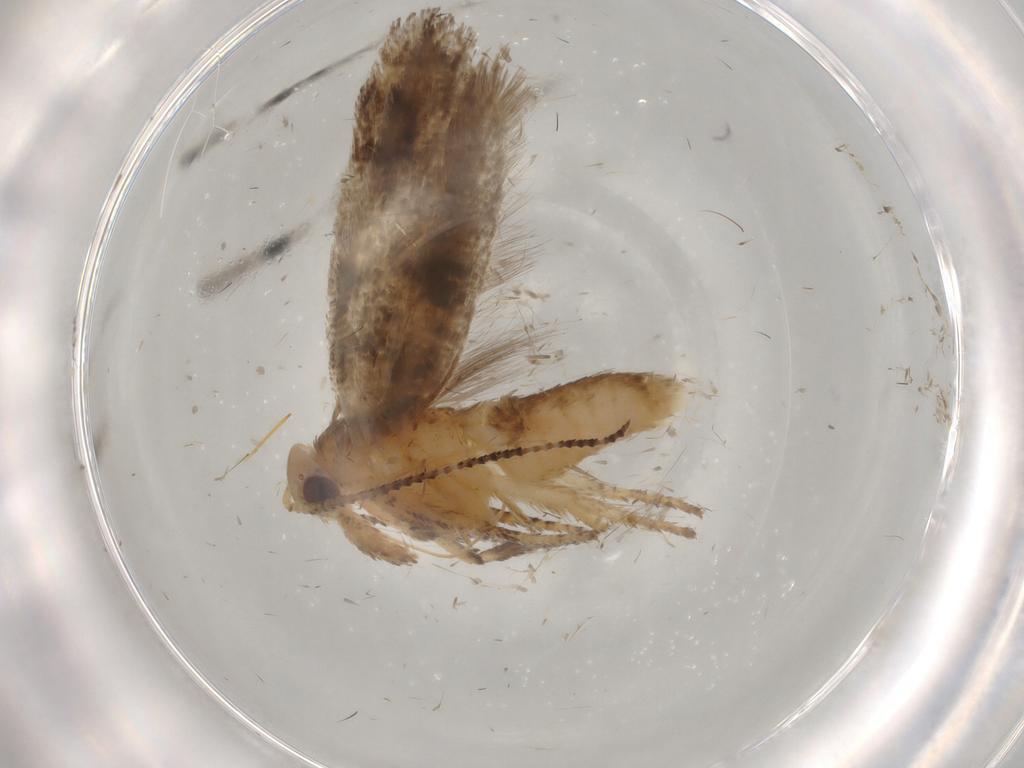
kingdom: Animalia
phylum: Arthropoda
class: Insecta
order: Lepidoptera
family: Ypsolophidae
